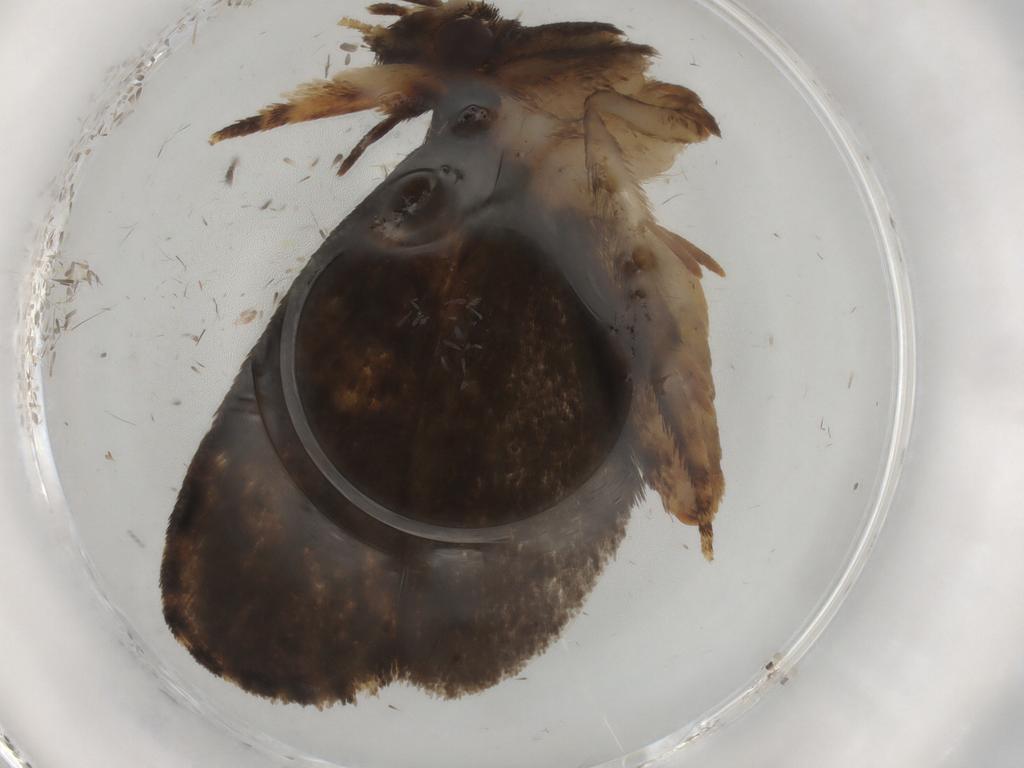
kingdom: Animalia
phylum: Arthropoda
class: Insecta
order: Lepidoptera
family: Tineidae
